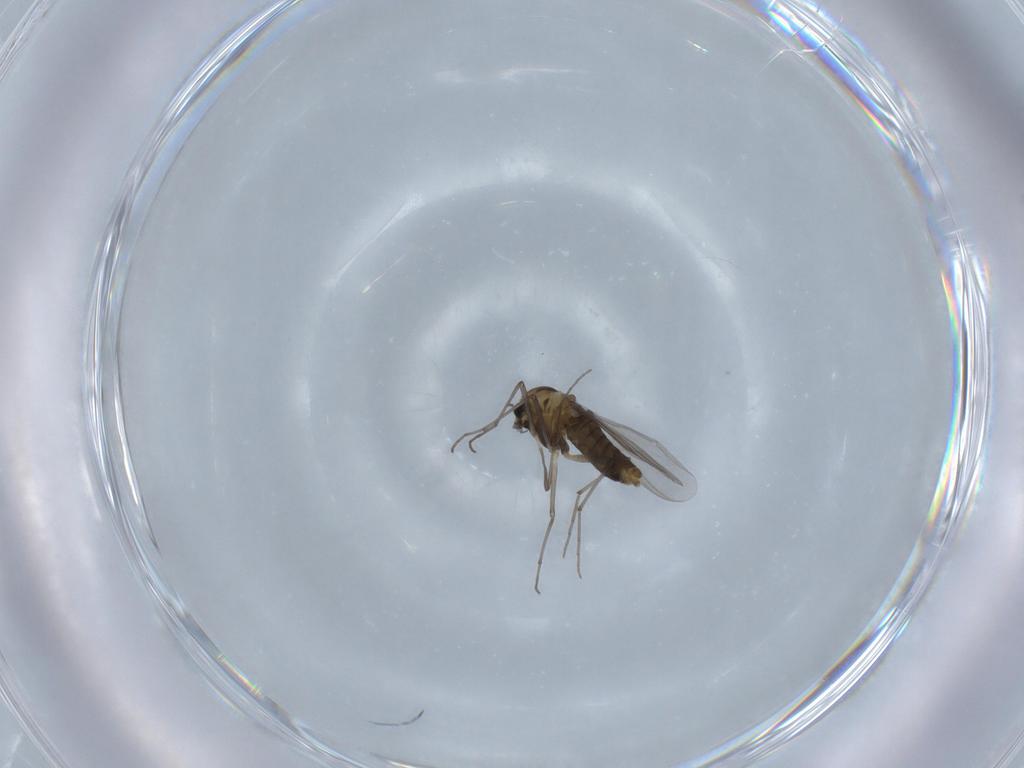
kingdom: Animalia
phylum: Arthropoda
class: Insecta
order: Diptera
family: Chironomidae
